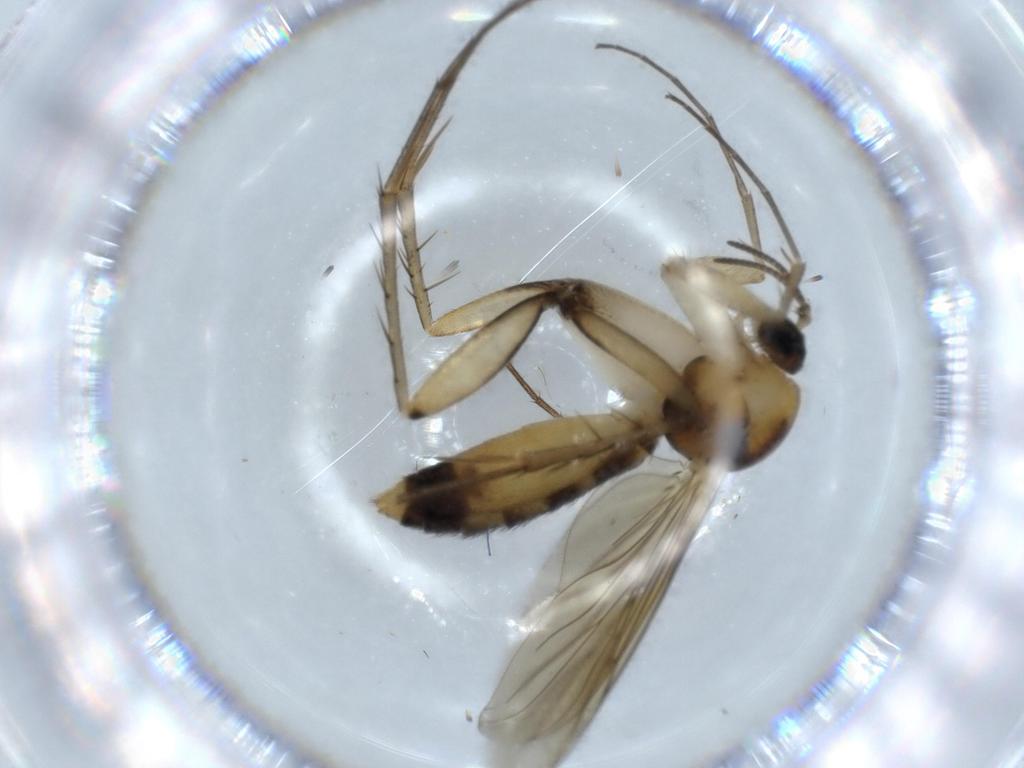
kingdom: Animalia
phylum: Arthropoda
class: Insecta
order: Diptera
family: Mycetophilidae
